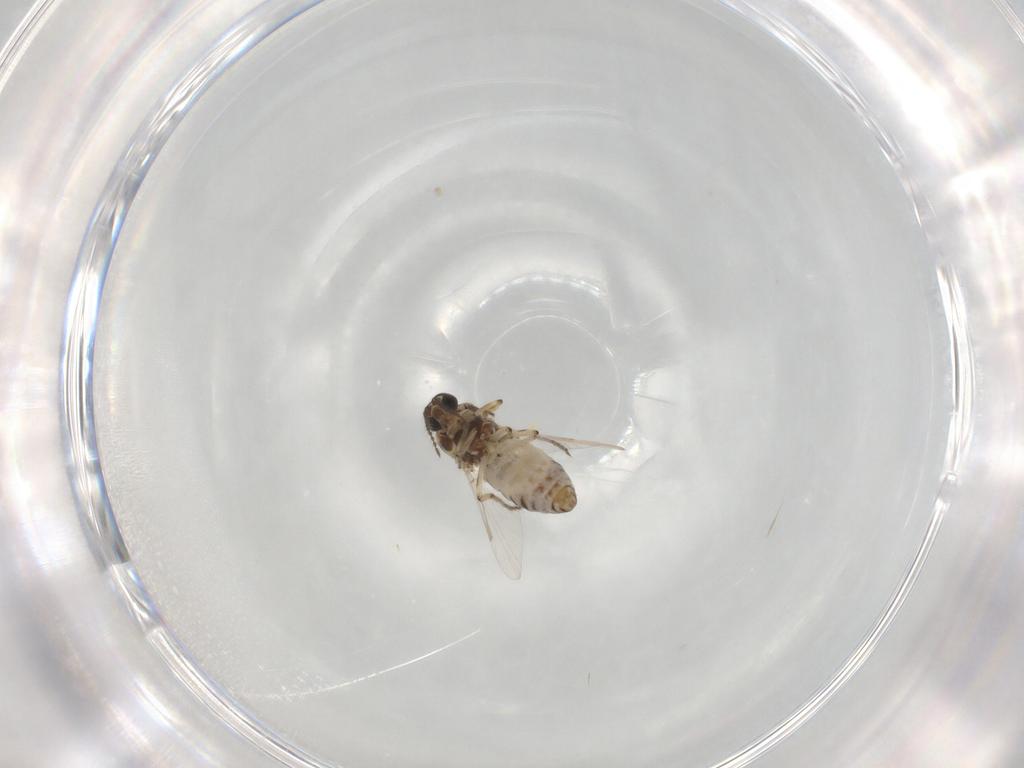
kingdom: Animalia
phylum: Arthropoda
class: Insecta
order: Diptera
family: Ceratopogonidae
